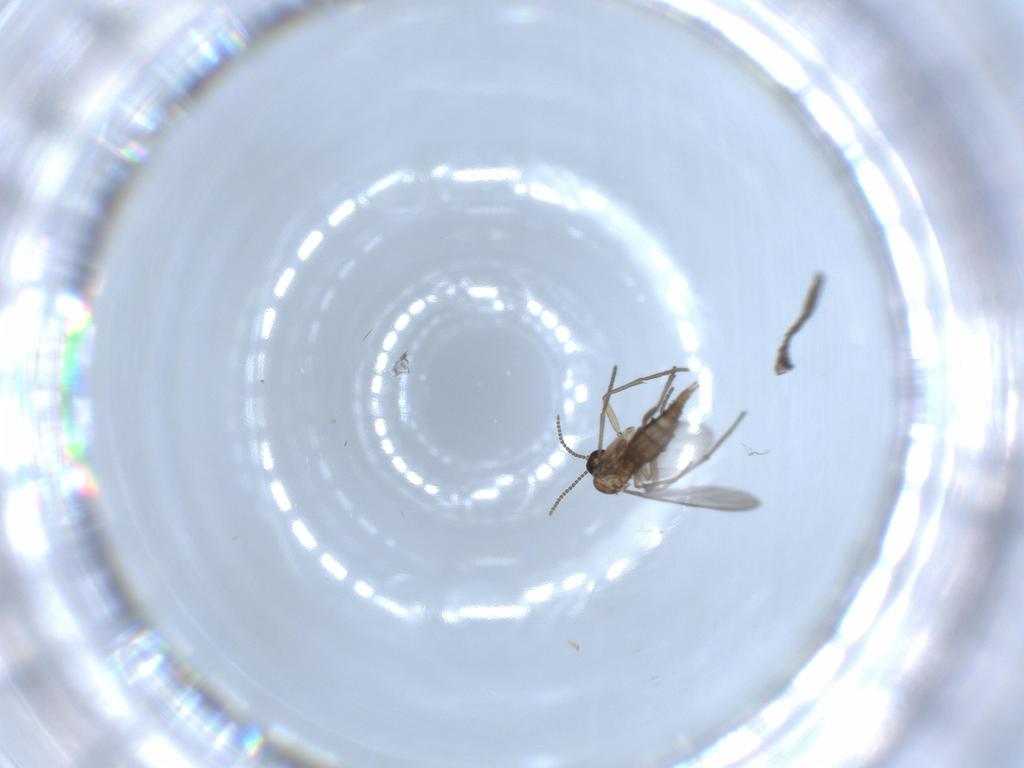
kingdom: Animalia
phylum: Arthropoda
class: Insecta
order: Diptera
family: Sciaridae
